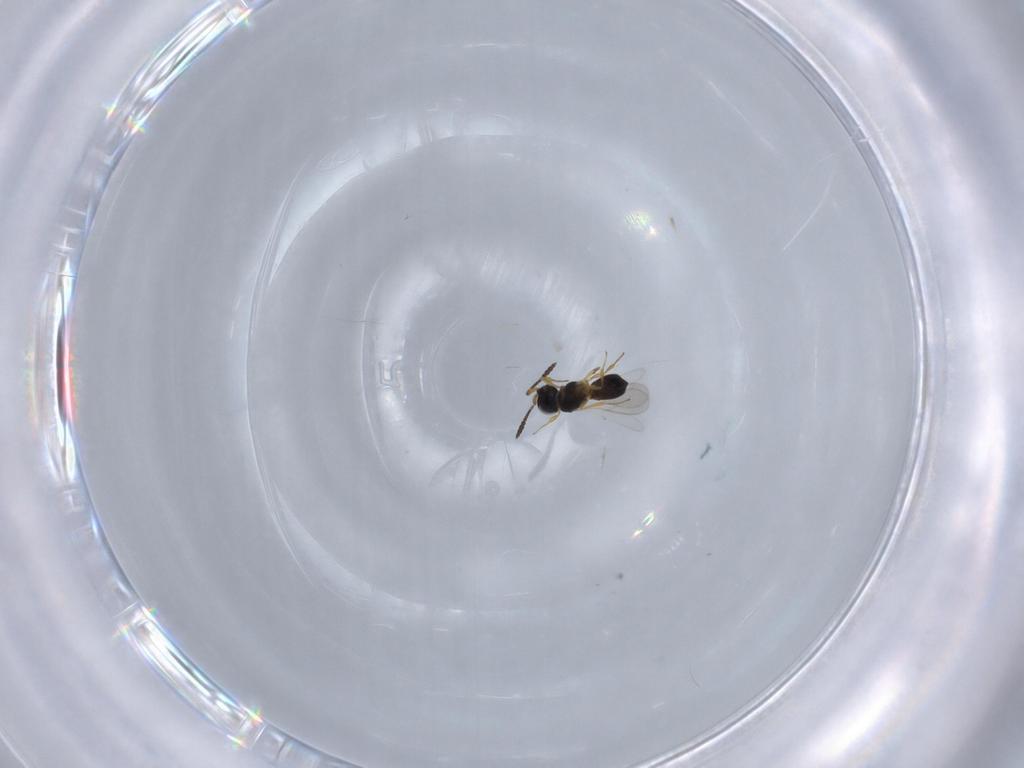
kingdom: Animalia
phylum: Arthropoda
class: Insecta
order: Hymenoptera
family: Scelionidae
